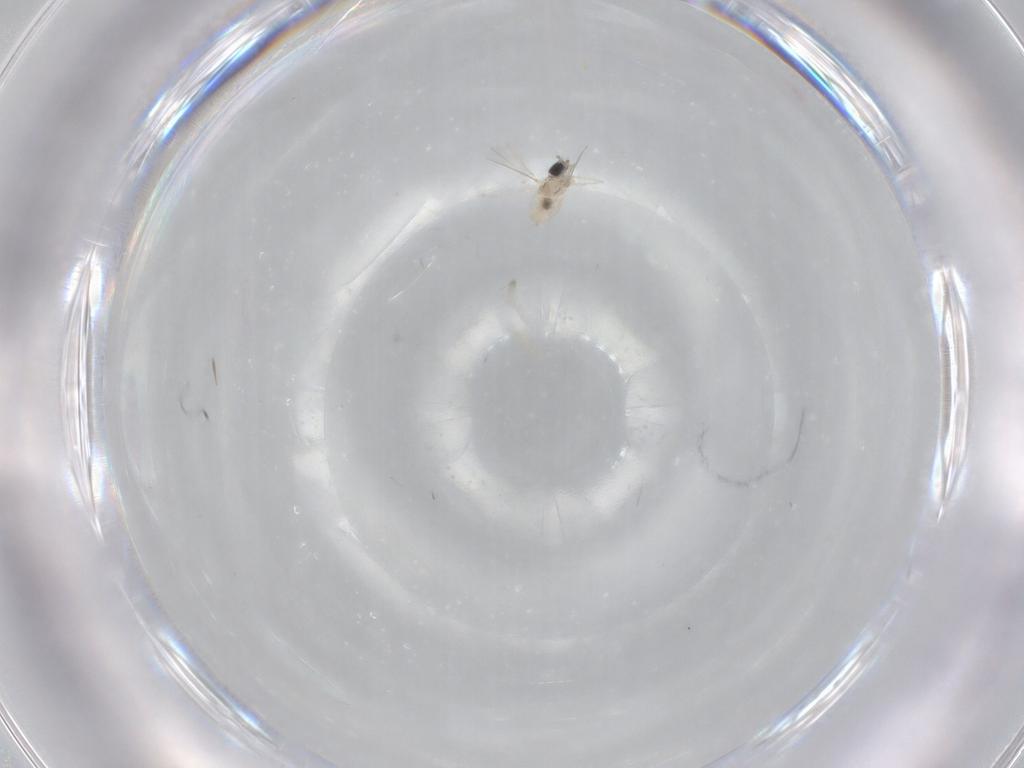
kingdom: Animalia
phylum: Arthropoda
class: Insecta
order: Diptera
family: Cecidomyiidae
